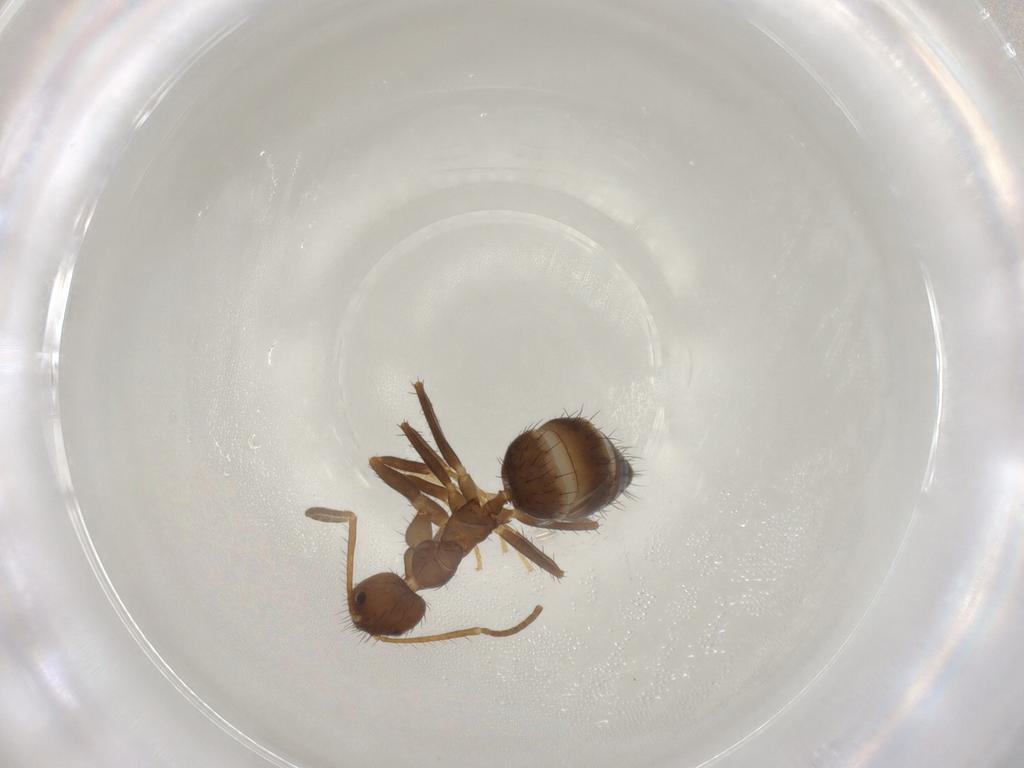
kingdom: Animalia
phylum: Arthropoda
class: Insecta
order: Hymenoptera
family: Formicidae
